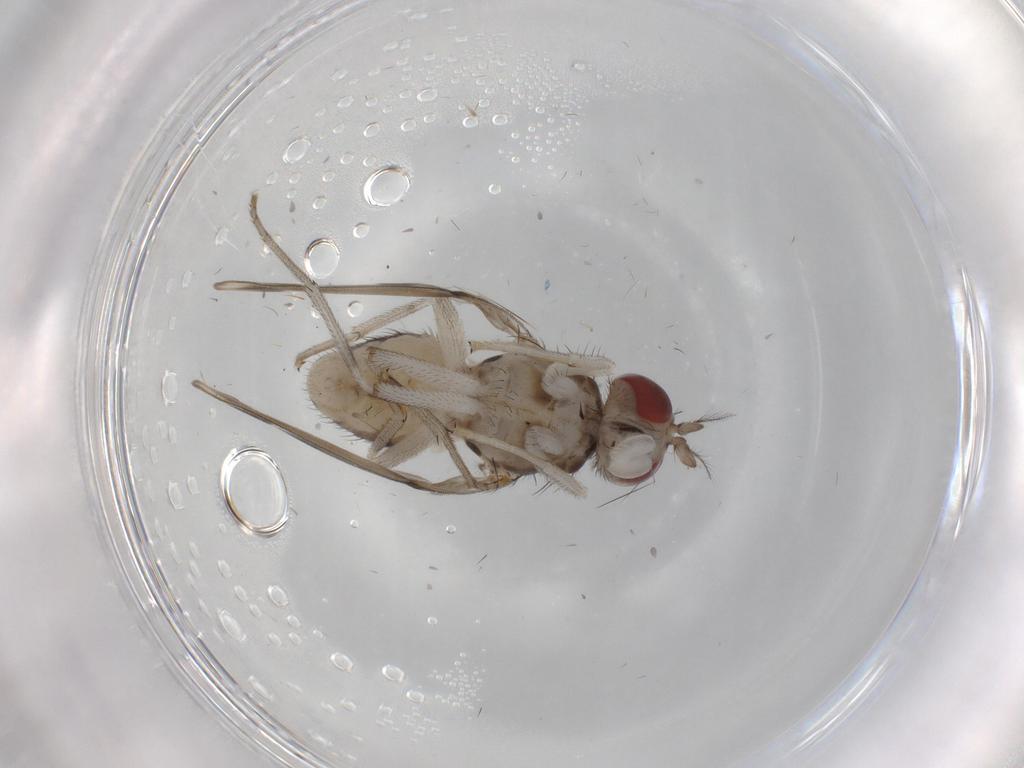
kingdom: Animalia
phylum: Arthropoda
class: Insecta
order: Diptera
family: Lauxaniidae
